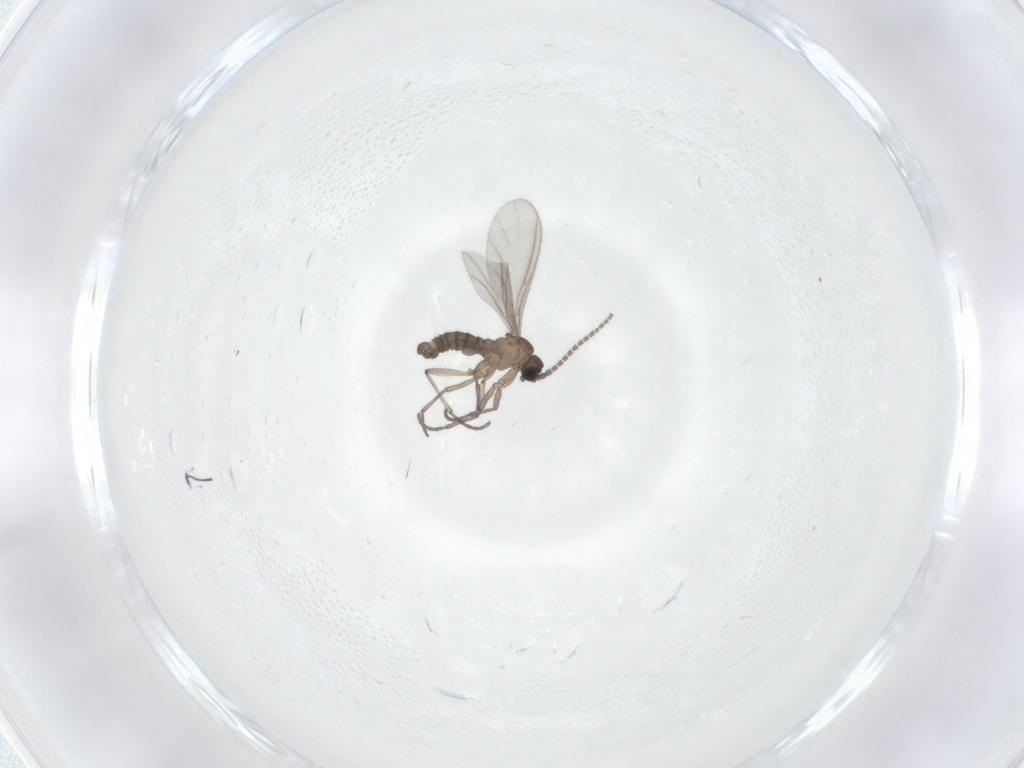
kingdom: Animalia
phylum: Arthropoda
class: Insecta
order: Diptera
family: Sciaridae
